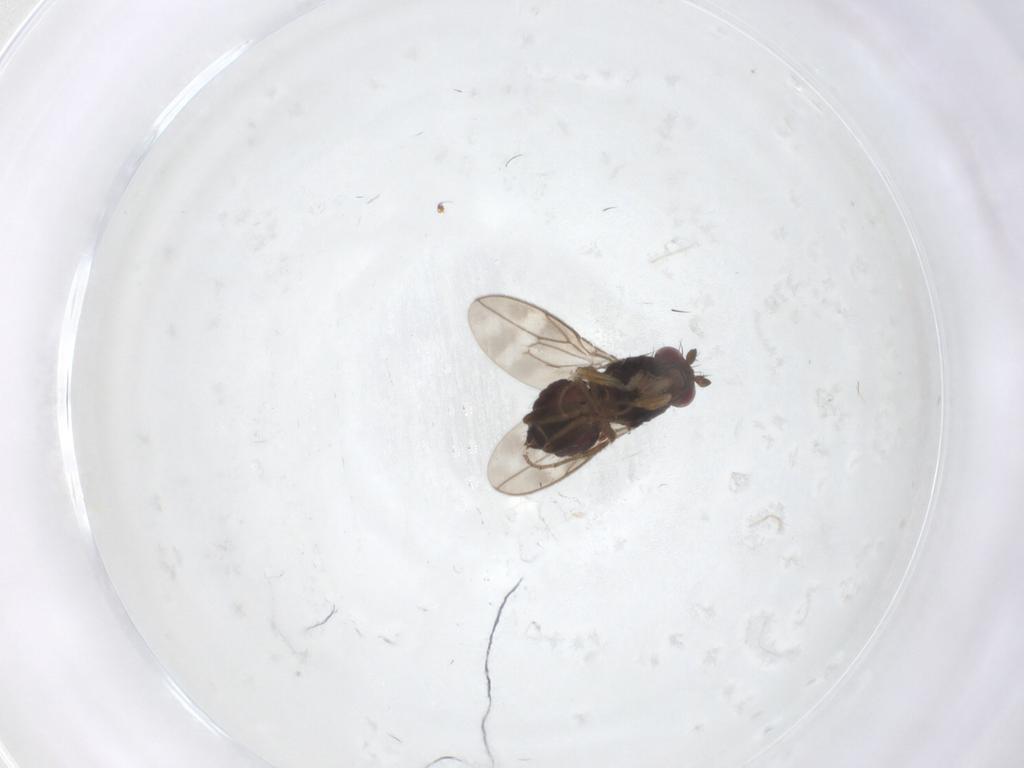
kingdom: Animalia
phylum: Arthropoda
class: Insecta
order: Diptera
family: Sphaeroceridae
